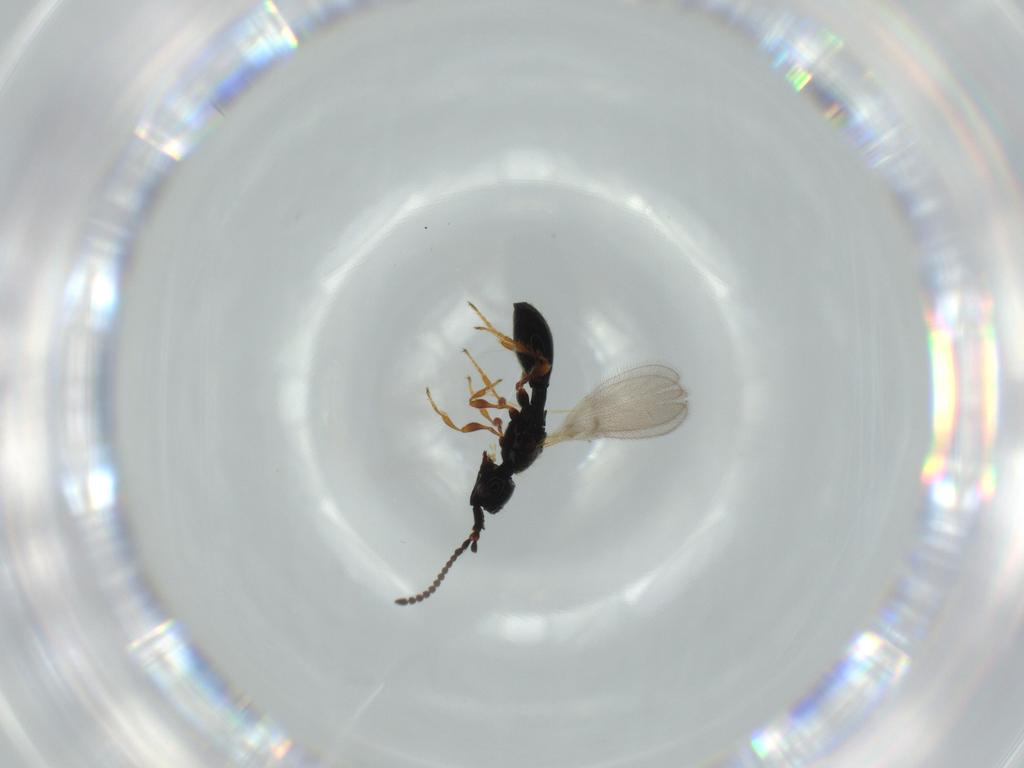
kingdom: Animalia
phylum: Arthropoda
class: Insecta
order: Hymenoptera
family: Diapriidae
